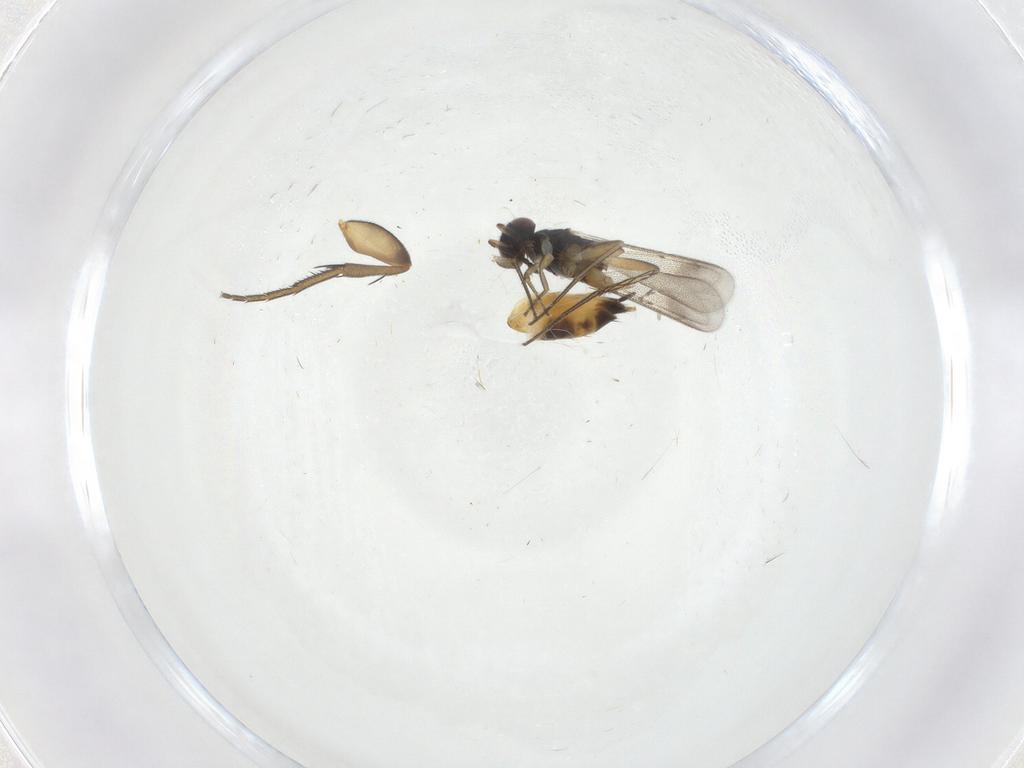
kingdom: Animalia
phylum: Arthropoda
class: Insecta
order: Diptera
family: Phoridae
